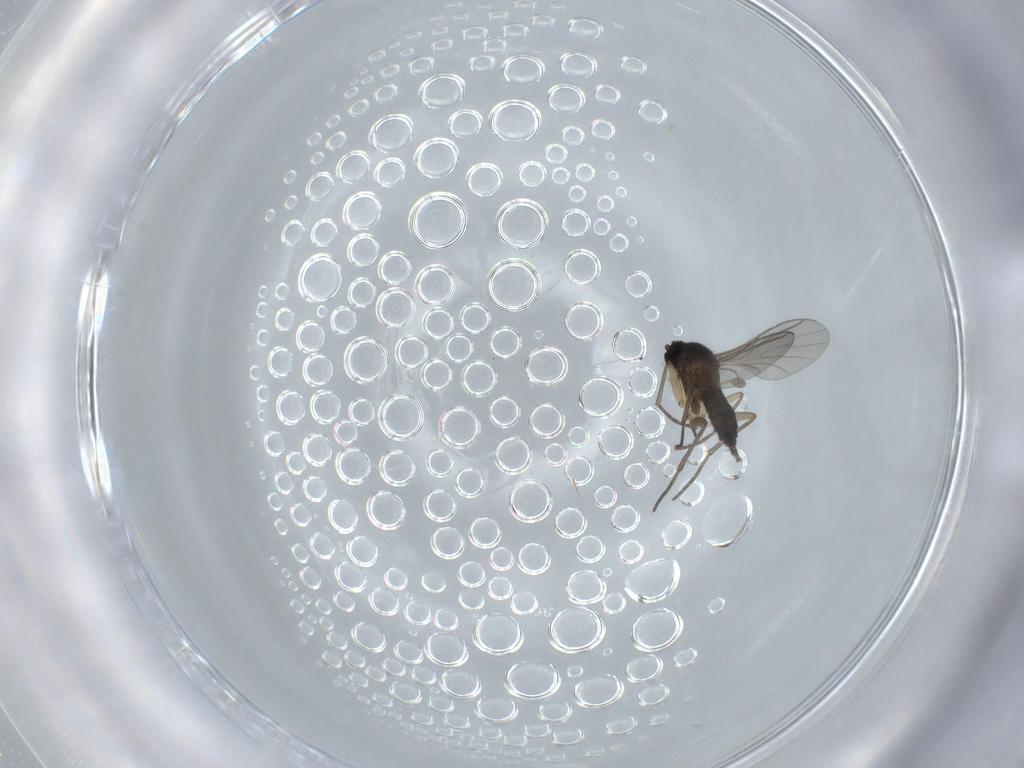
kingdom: Animalia
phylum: Arthropoda
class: Insecta
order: Diptera
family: Sciaridae
